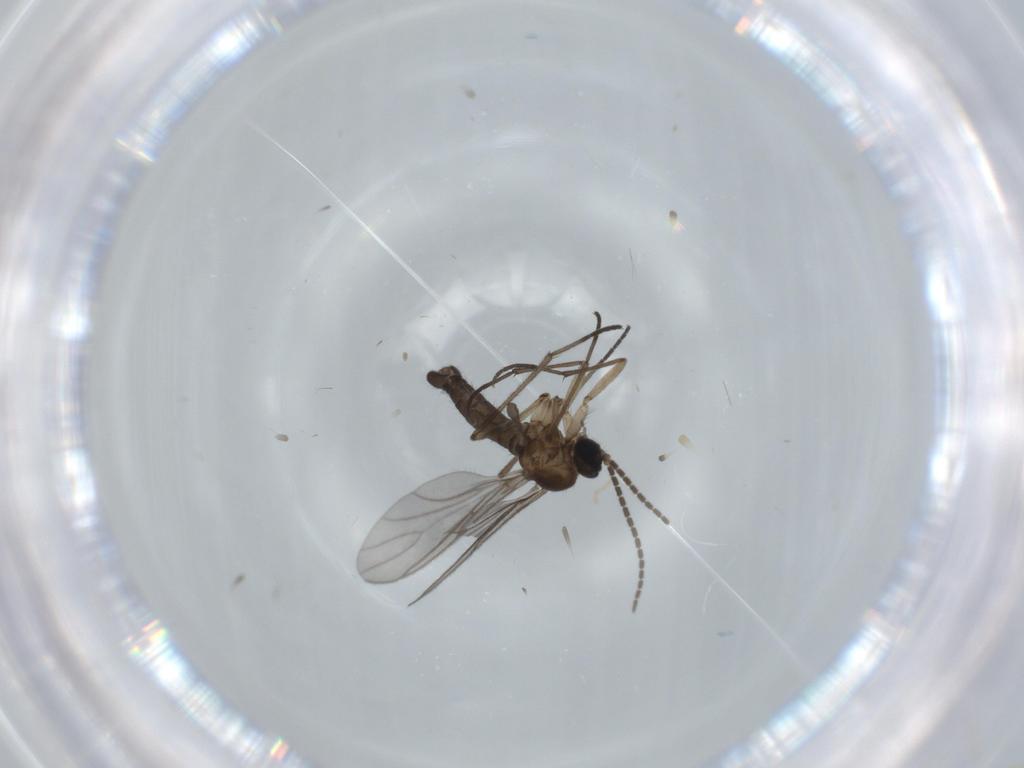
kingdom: Animalia
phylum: Arthropoda
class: Insecta
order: Diptera
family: Sciaridae
